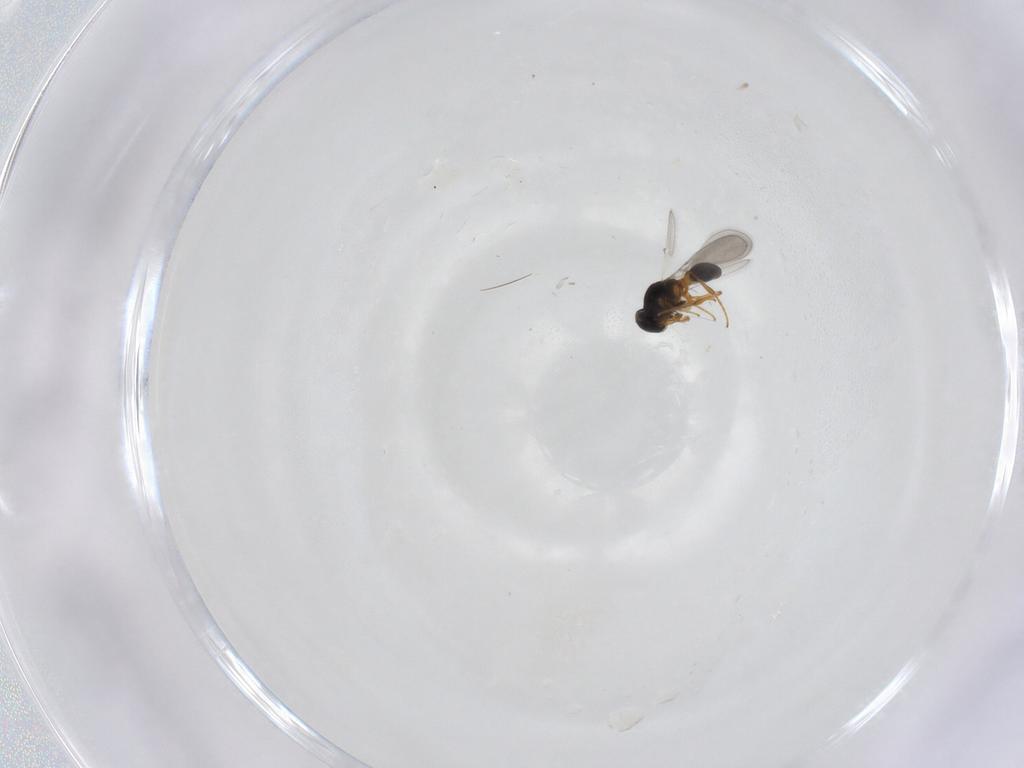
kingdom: Animalia
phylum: Arthropoda
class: Insecta
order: Hymenoptera
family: Platygastridae
